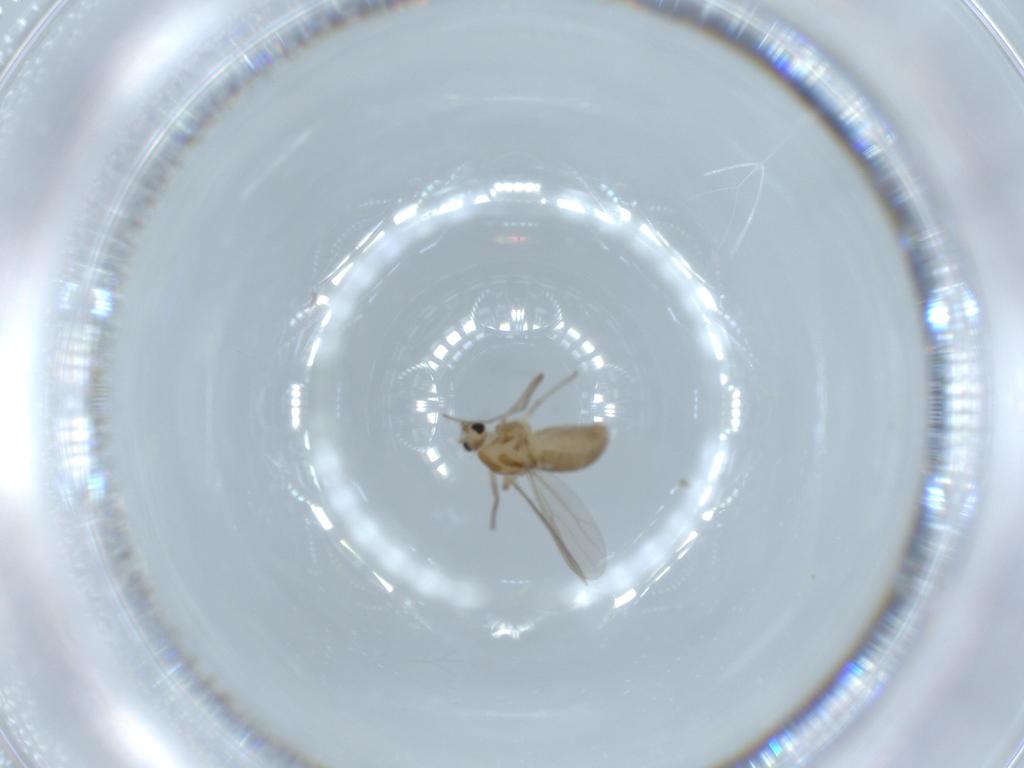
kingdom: Animalia
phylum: Arthropoda
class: Insecta
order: Diptera
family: Chironomidae
